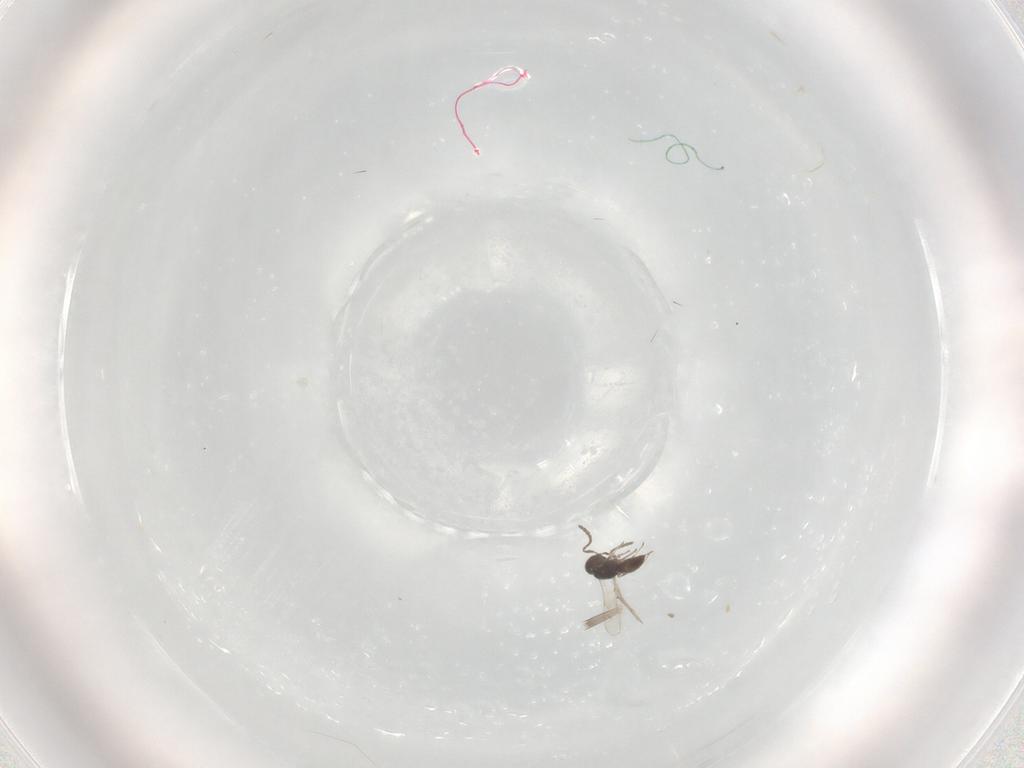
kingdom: Animalia
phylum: Arthropoda
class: Insecta
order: Hymenoptera
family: Scelionidae
